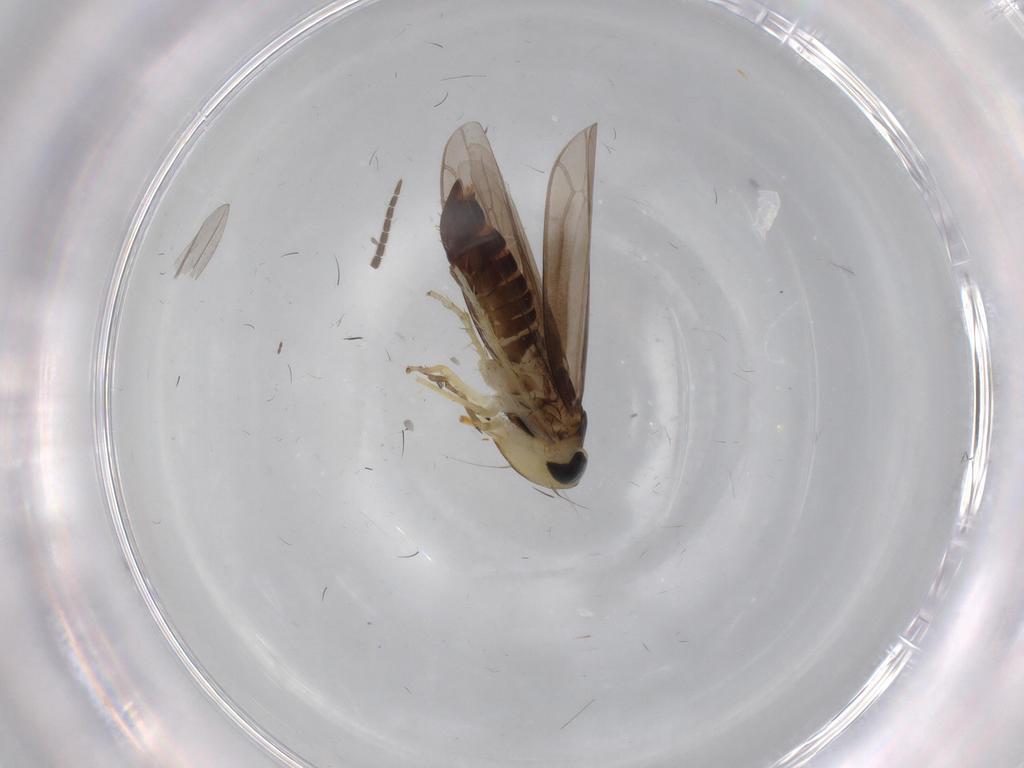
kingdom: Animalia
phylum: Arthropoda
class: Insecta
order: Hemiptera
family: Cicadellidae
